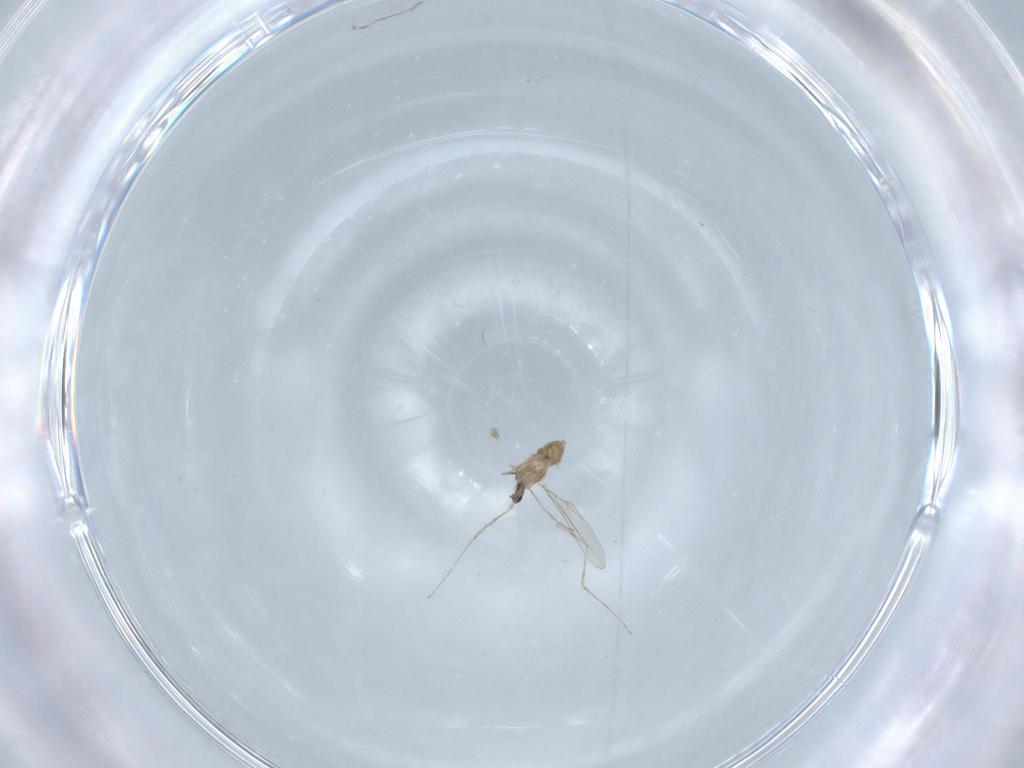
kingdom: Animalia
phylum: Arthropoda
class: Insecta
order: Diptera
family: Cecidomyiidae
